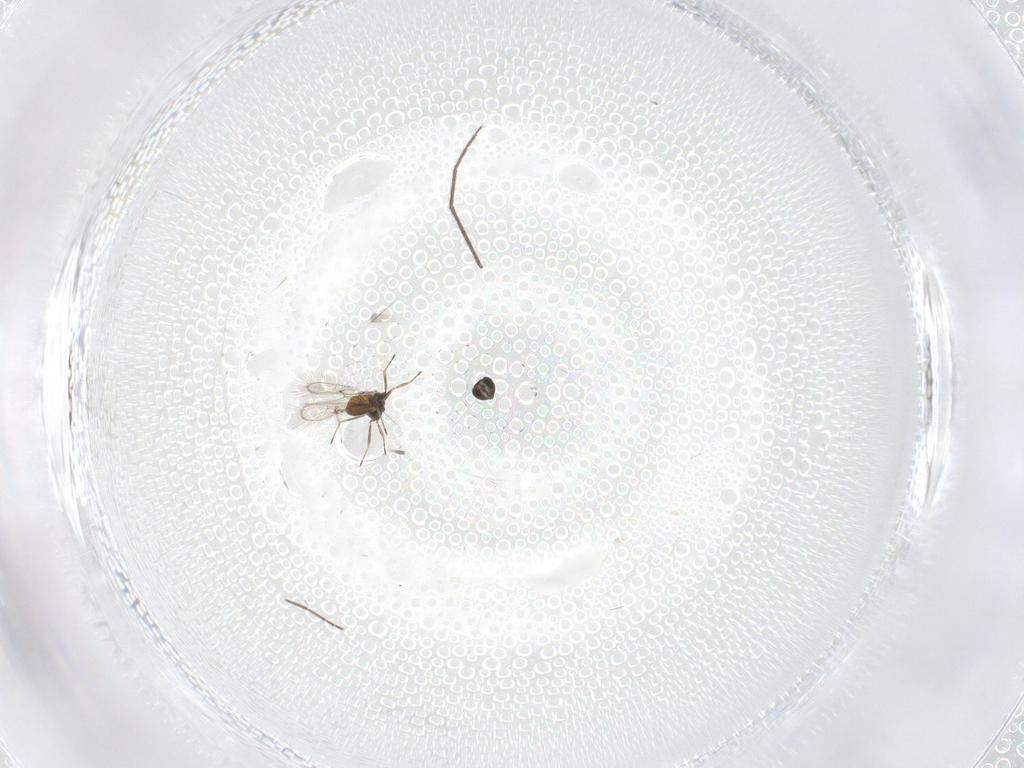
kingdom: Animalia
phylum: Arthropoda
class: Insecta
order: Hymenoptera
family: Trichogrammatidae
